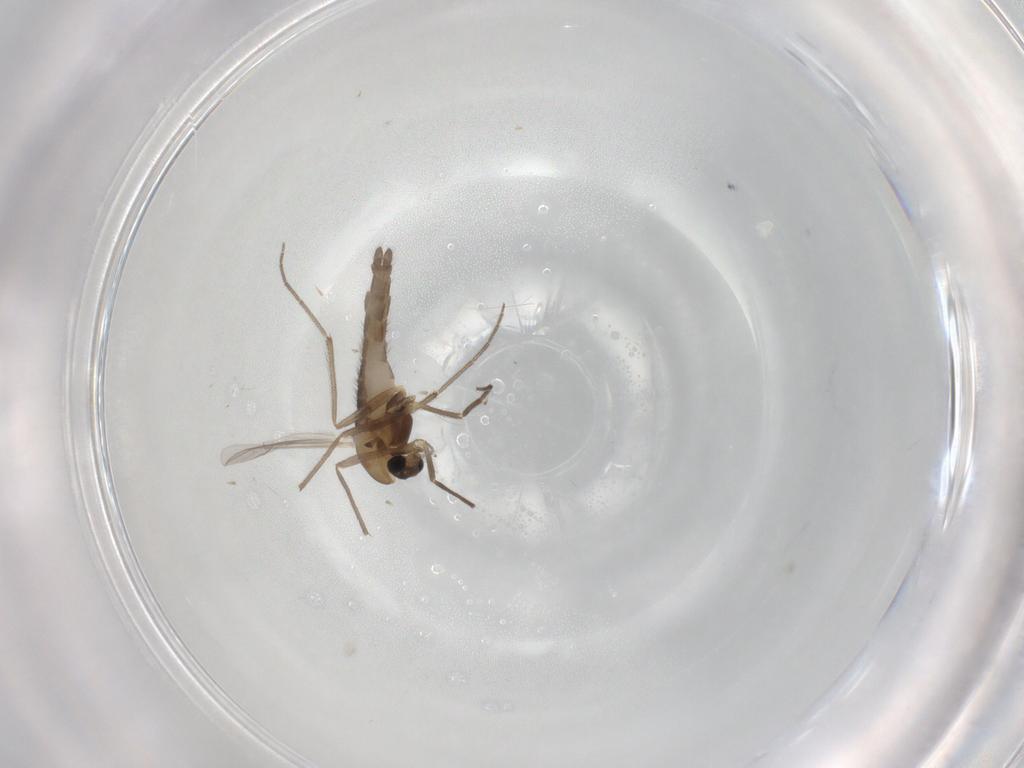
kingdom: Animalia
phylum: Arthropoda
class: Insecta
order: Diptera
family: Chironomidae
